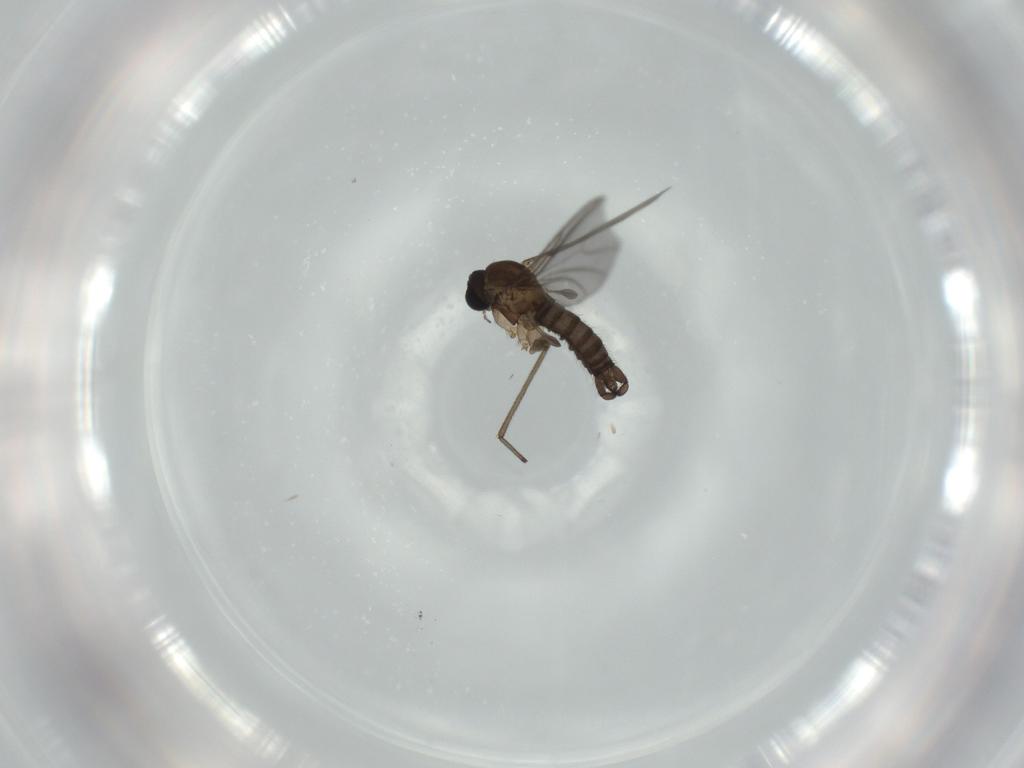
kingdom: Animalia
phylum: Arthropoda
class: Insecta
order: Diptera
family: Sciaridae
